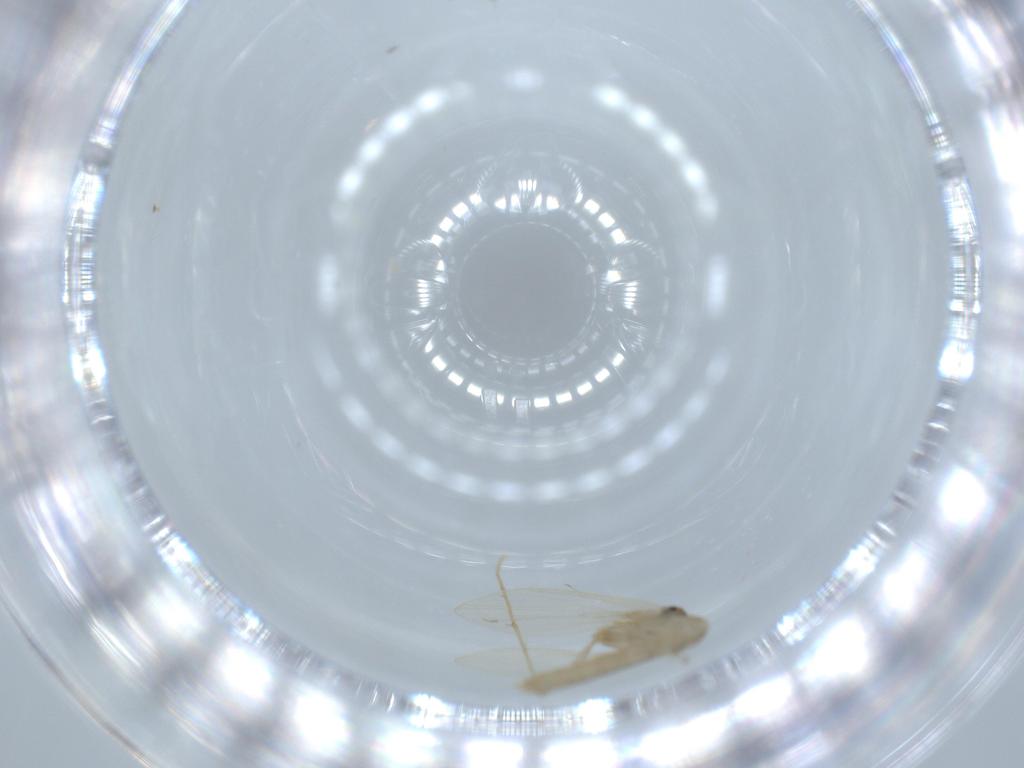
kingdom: Animalia
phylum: Arthropoda
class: Insecta
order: Diptera
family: Psychodidae
